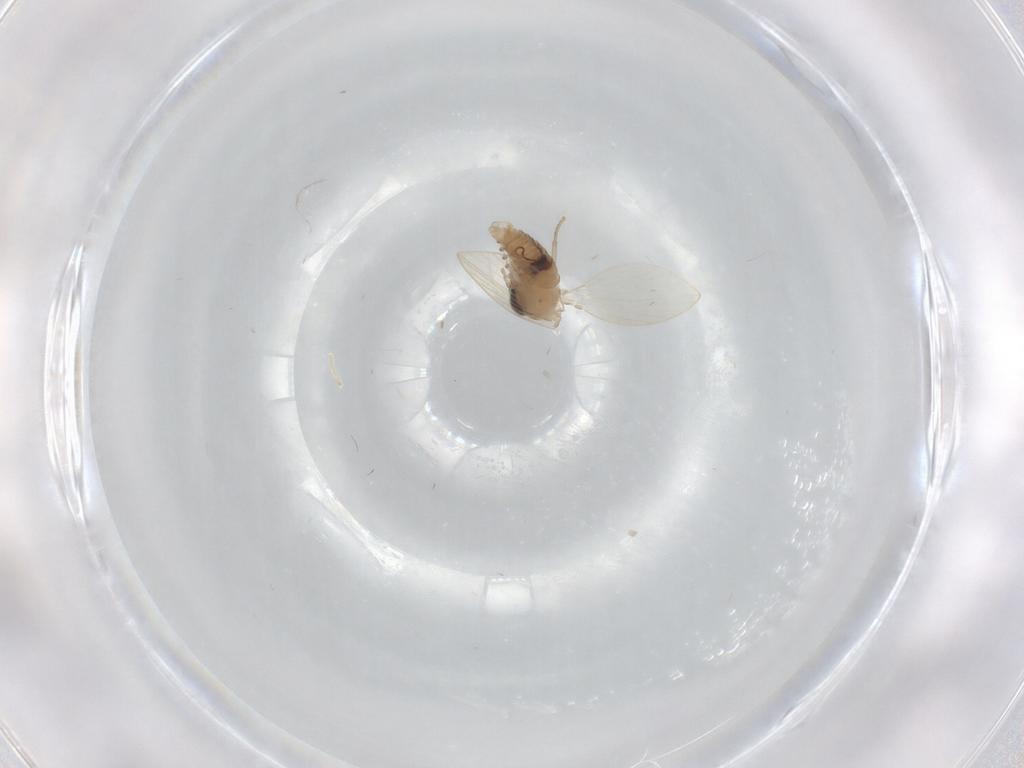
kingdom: Animalia
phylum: Arthropoda
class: Insecta
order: Diptera
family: Psychodidae
